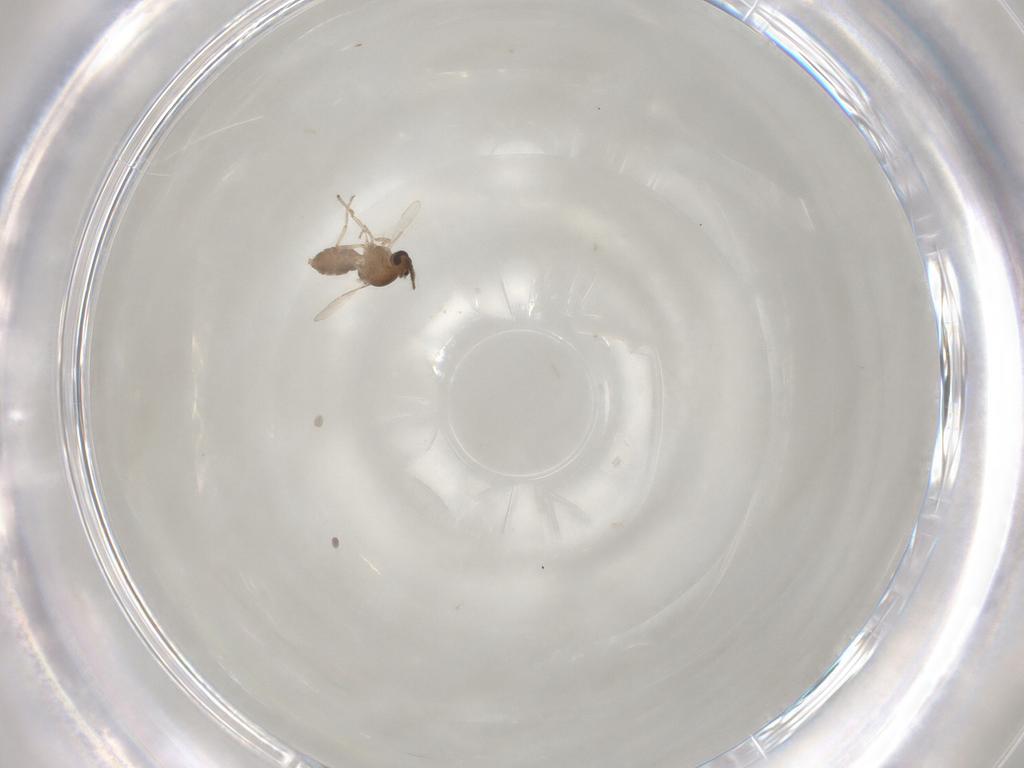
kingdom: Animalia
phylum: Arthropoda
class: Insecta
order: Diptera
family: Ceratopogonidae
